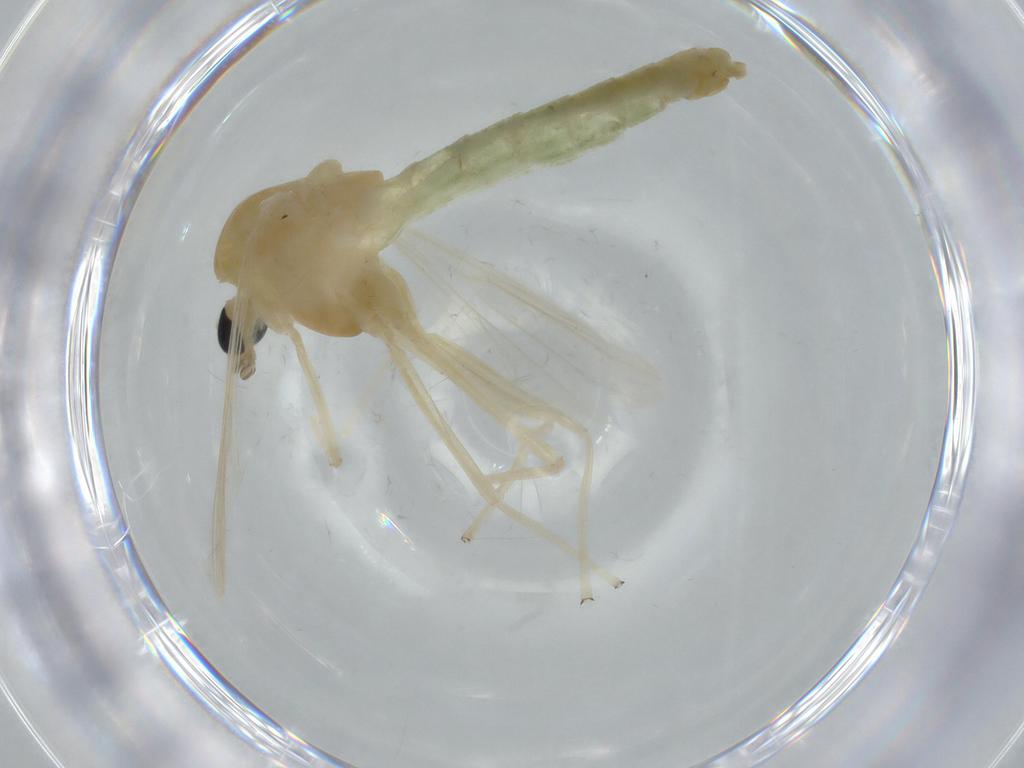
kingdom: Animalia
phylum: Arthropoda
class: Insecta
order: Diptera
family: Chironomidae
